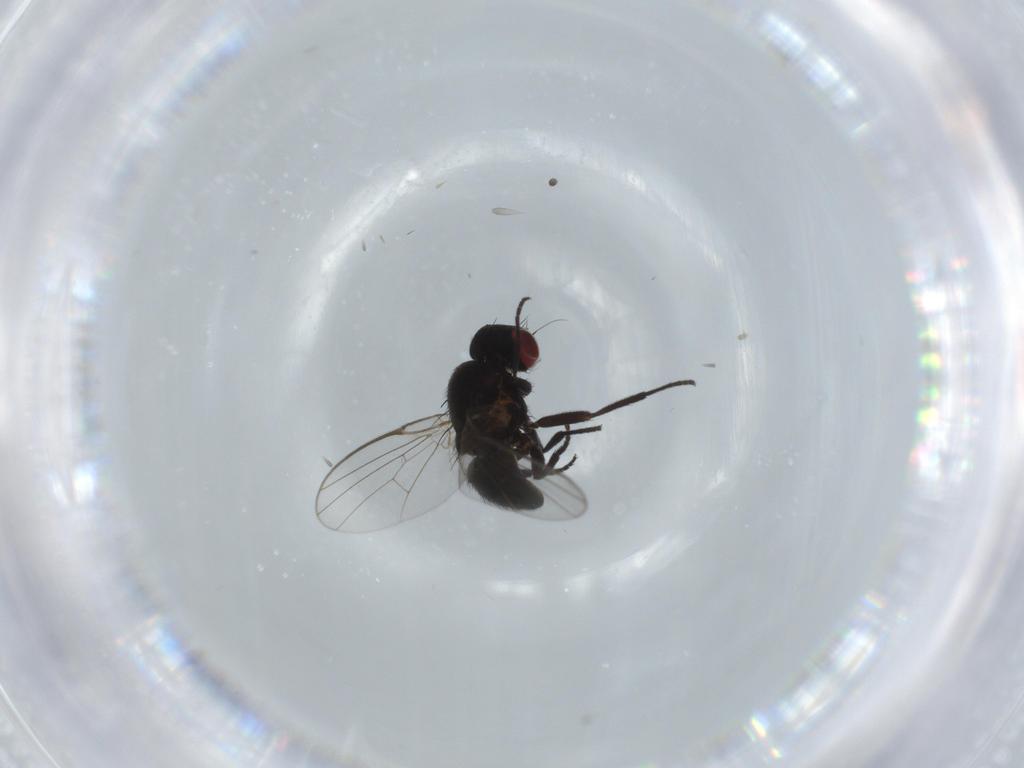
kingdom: Animalia
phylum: Arthropoda
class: Insecta
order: Diptera
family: Agromyzidae
